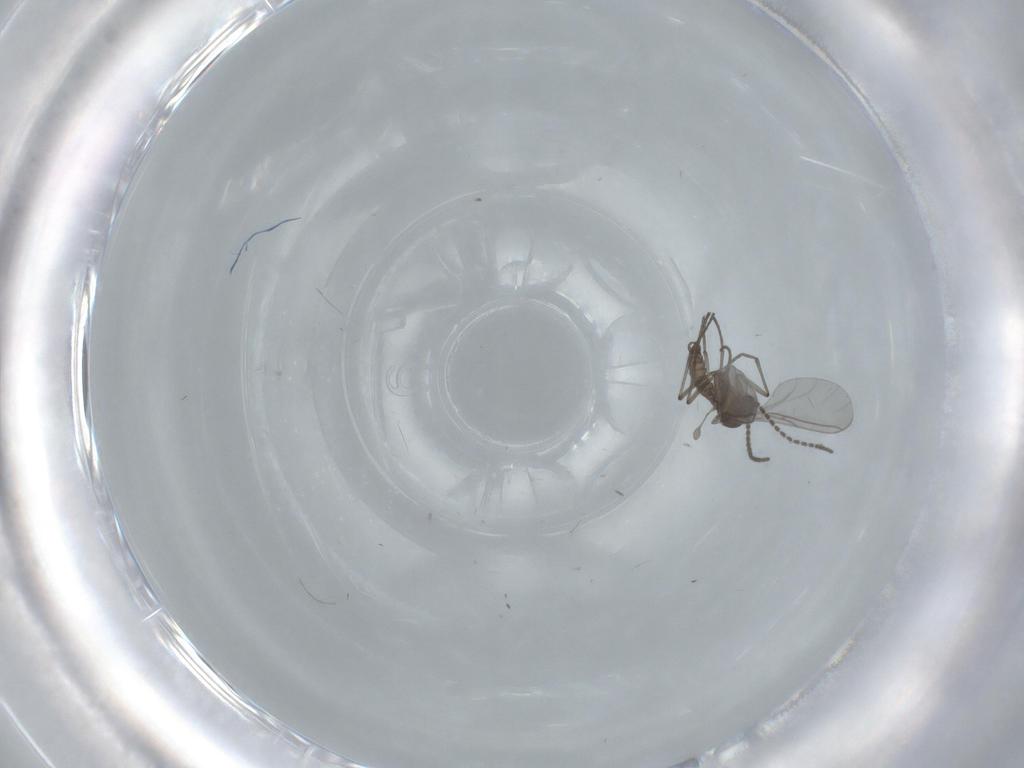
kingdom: Animalia
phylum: Arthropoda
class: Insecta
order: Diptera
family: Sciaridae
